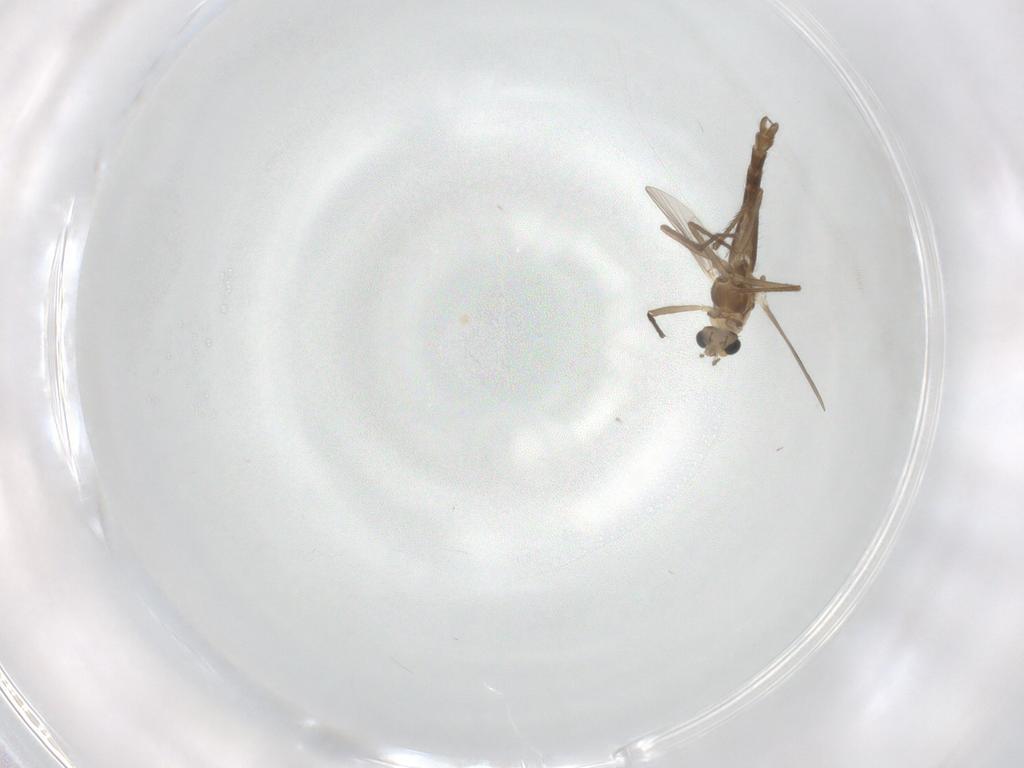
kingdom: Animalia
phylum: Arthropoda
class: Insecta
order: Diptera
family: Chironomidae
